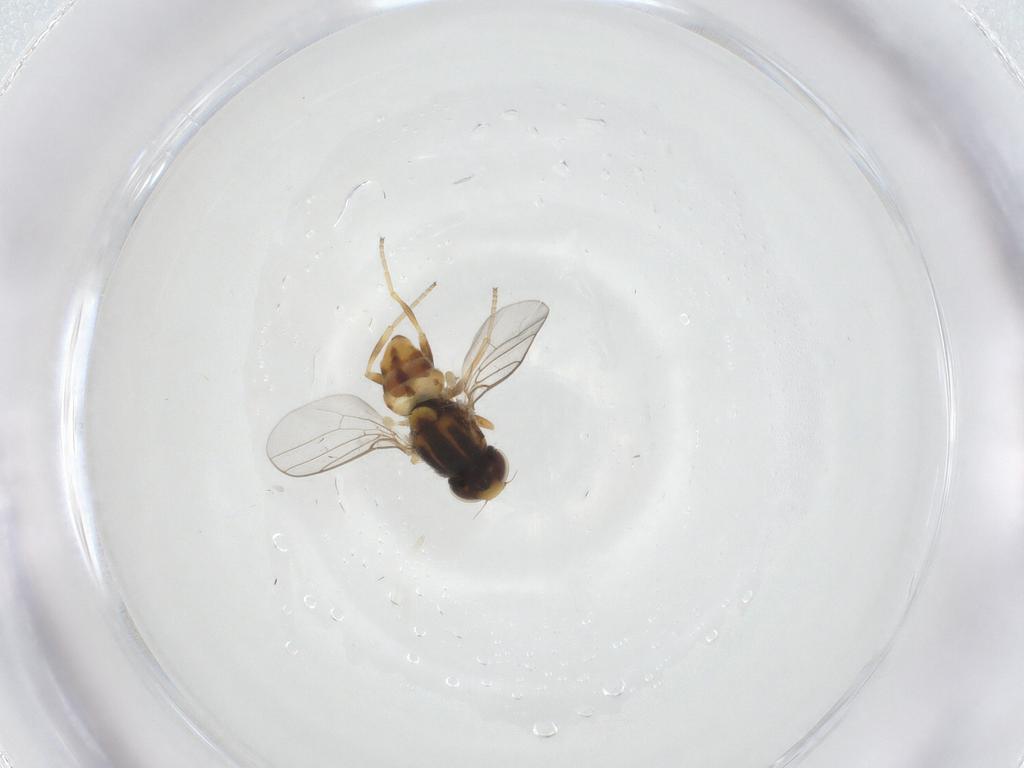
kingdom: Animalia
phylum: Arthropoda
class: Insecta
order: Diptera
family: Chloropidae
